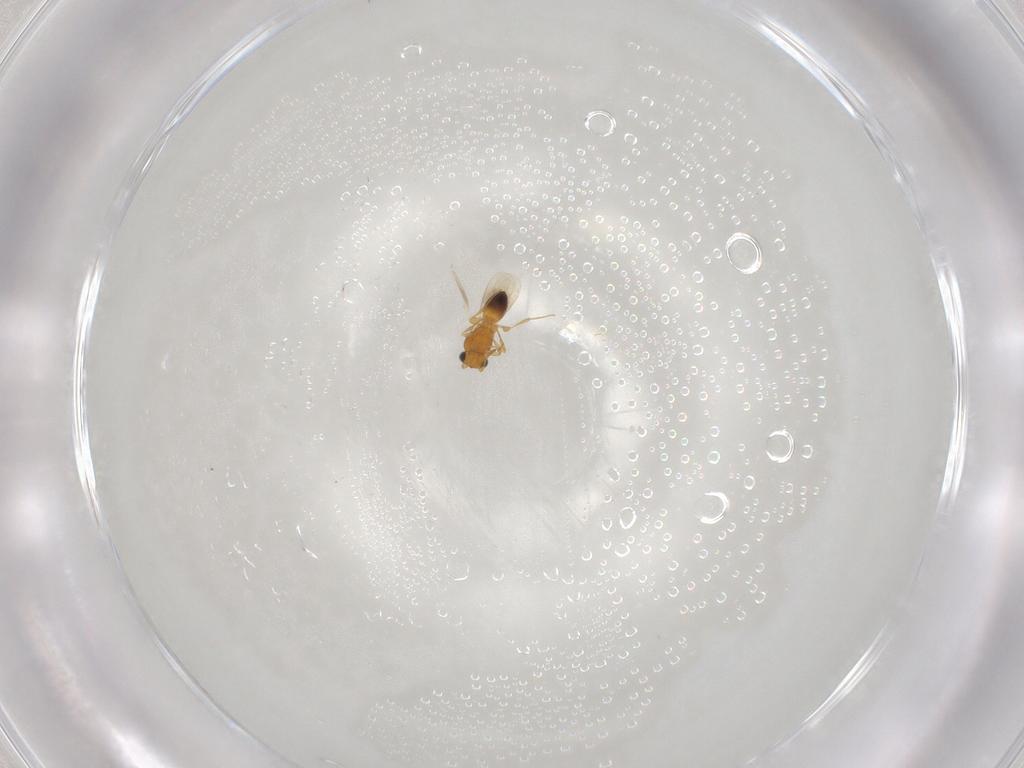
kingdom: Animalia
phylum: Arthropoda
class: Insecta
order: Hymenoptera
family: Platygastridae
